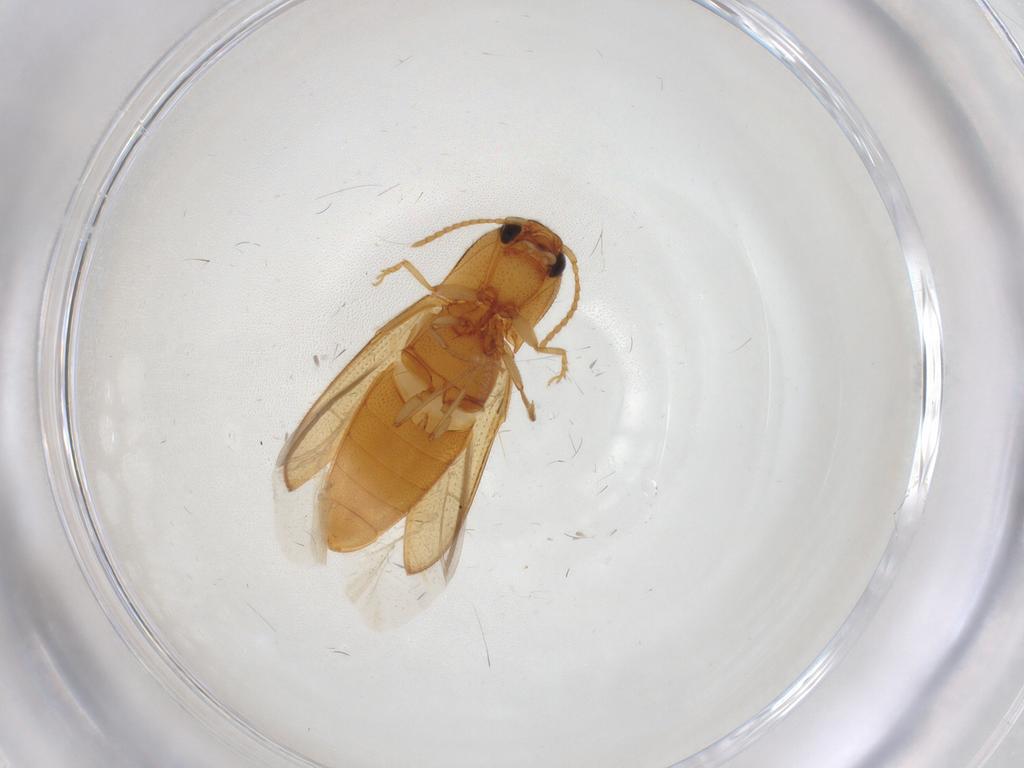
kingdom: Animalia
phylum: Arthropoda
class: Insecta
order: Coleoptera
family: Elateridae
